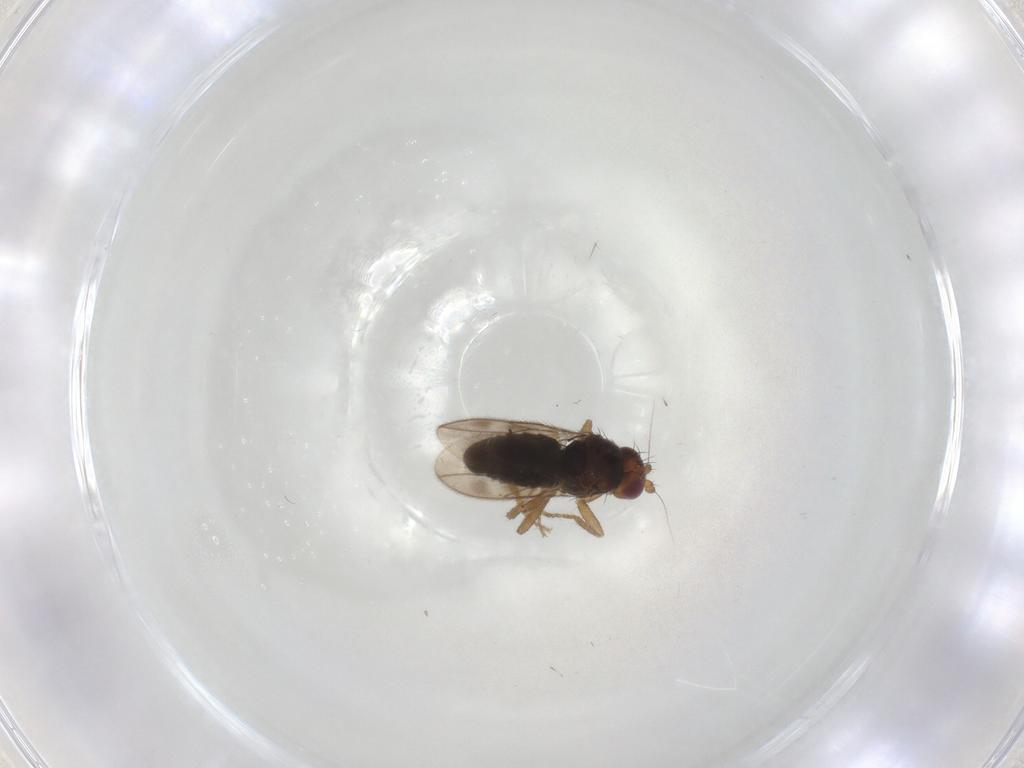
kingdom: Animalia
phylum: Arthropoda
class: Insecta
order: Diptera
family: Sphaeroceridae
